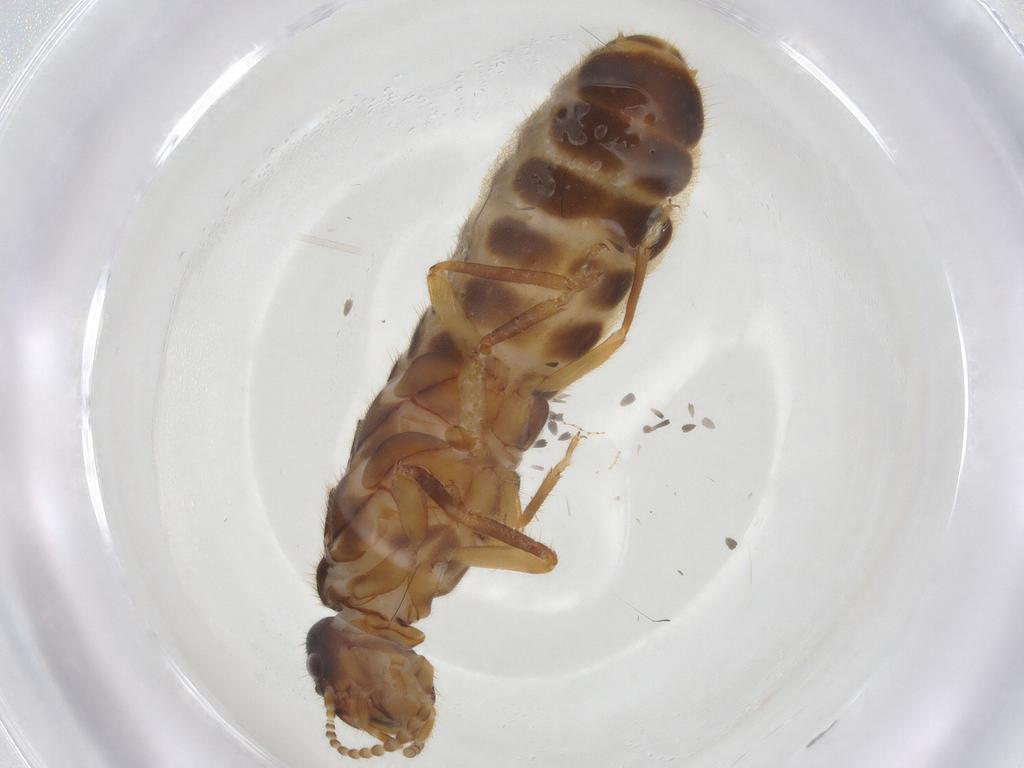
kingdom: Animalia
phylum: Arthropoda
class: Insecta
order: Blattodea
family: Termitidae
